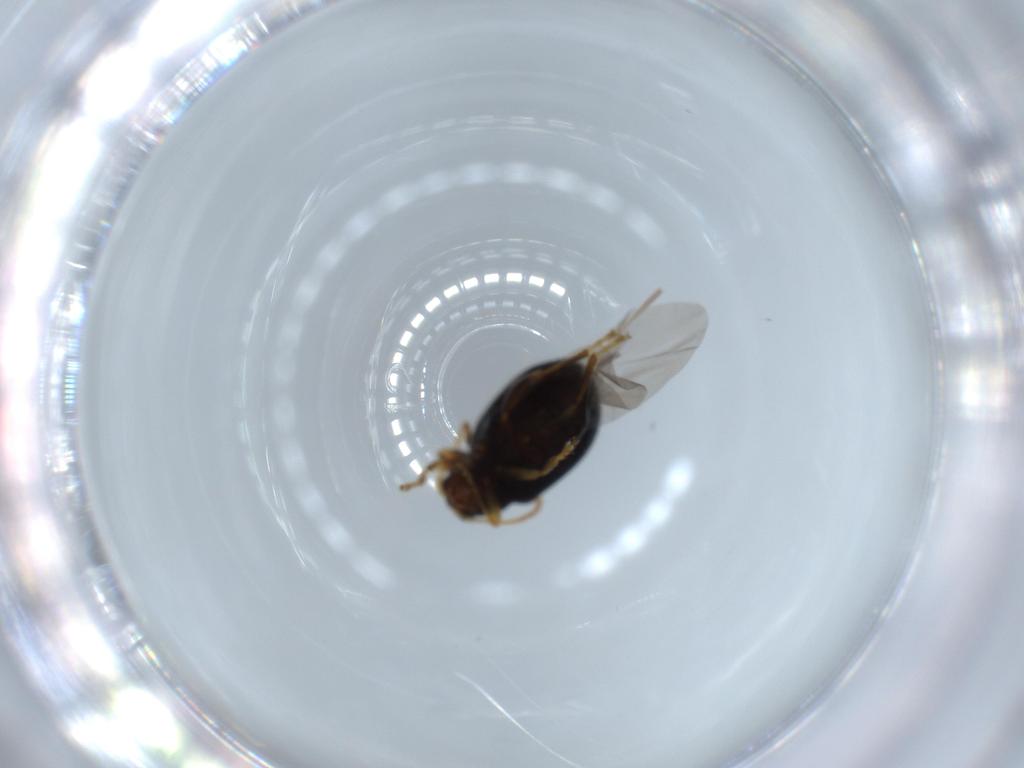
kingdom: Animalia
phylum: Arthropoda
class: Insecta
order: Coleoptera
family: Chrysomelidae
